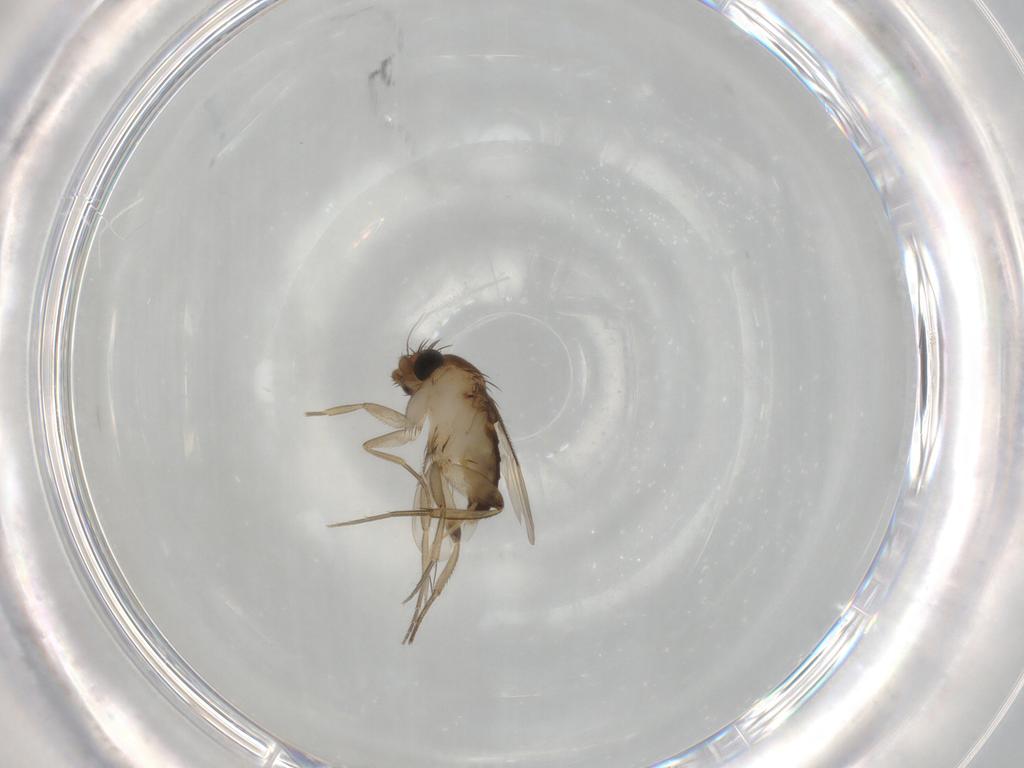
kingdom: Animalia
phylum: Arthropoda
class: Insecta
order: Diptera
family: Phoridae
